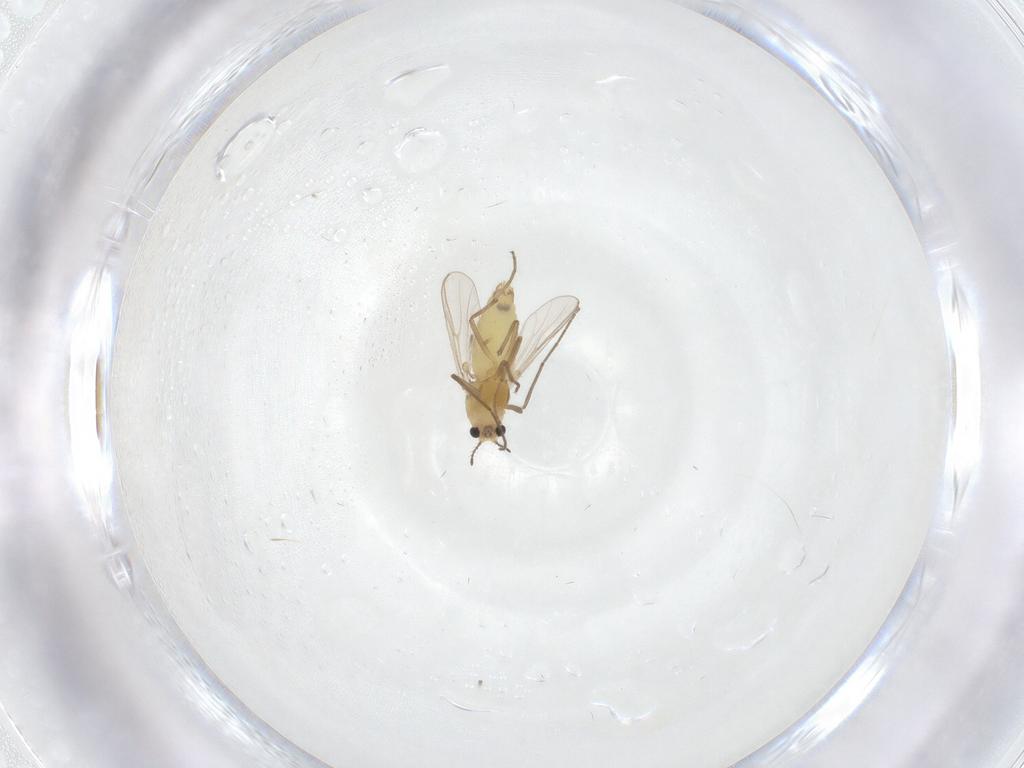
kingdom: Animalia
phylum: Arthropoda
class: Insecta
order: Diptera
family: Chironomidae
